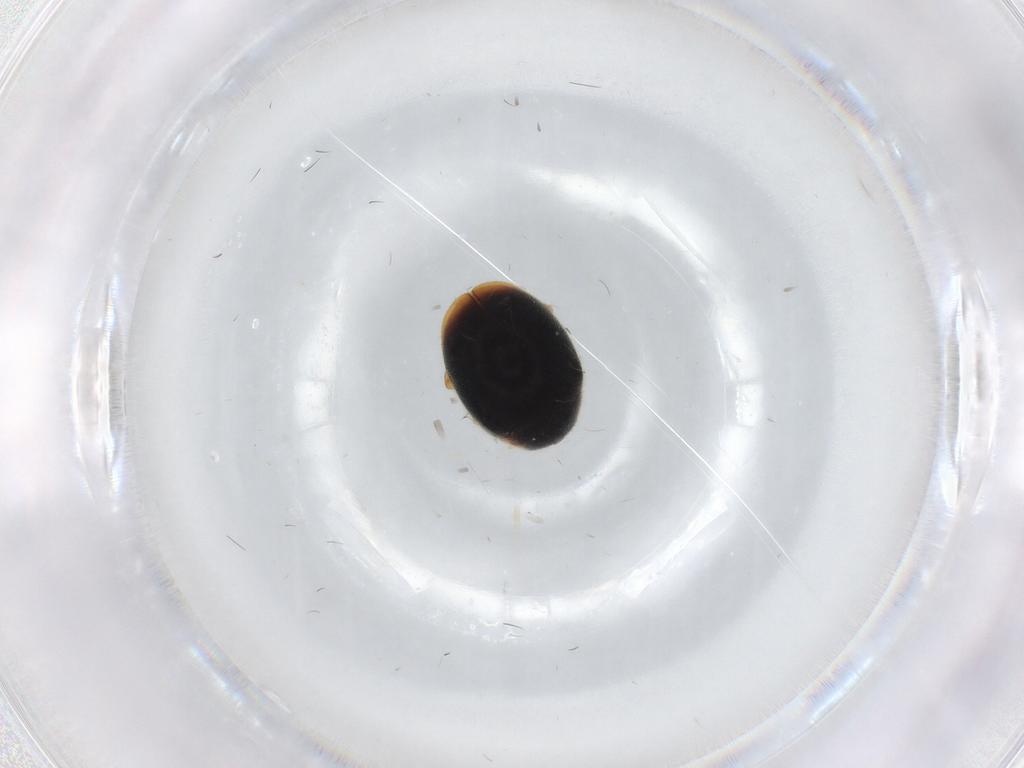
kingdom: Animalia
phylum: Arthropoda
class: Insecta
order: Coleoptera
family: Coccinellidae
